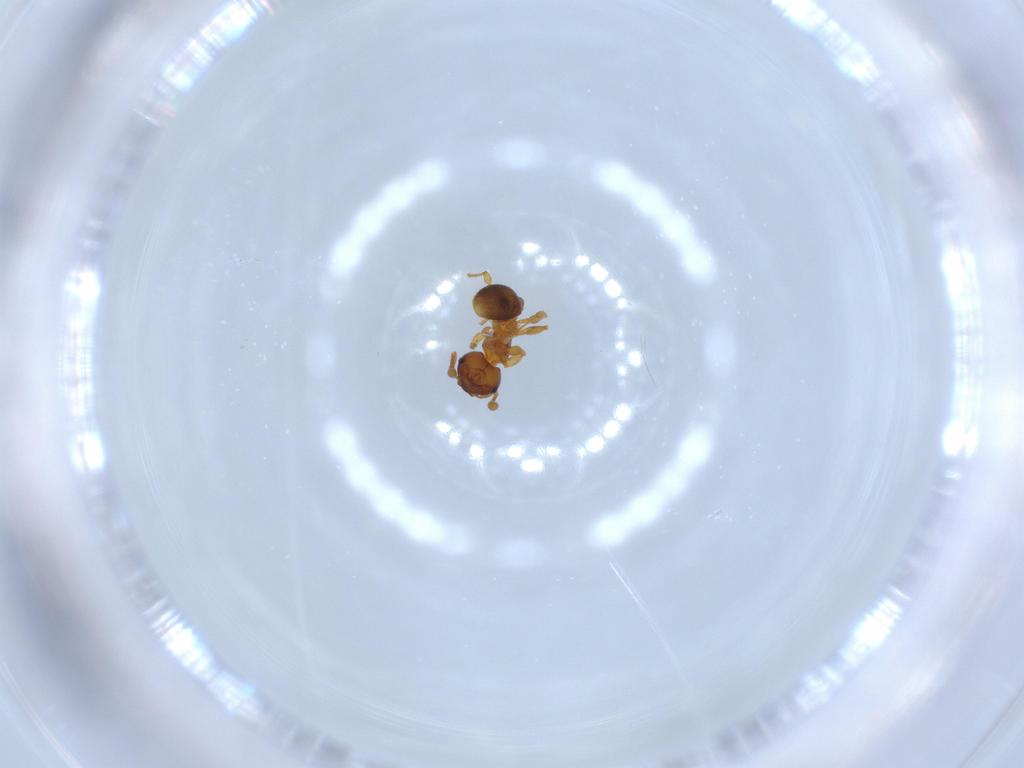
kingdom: Animalia
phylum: Arthropoda
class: Insecta
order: Hymenoptera
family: Formicidae
